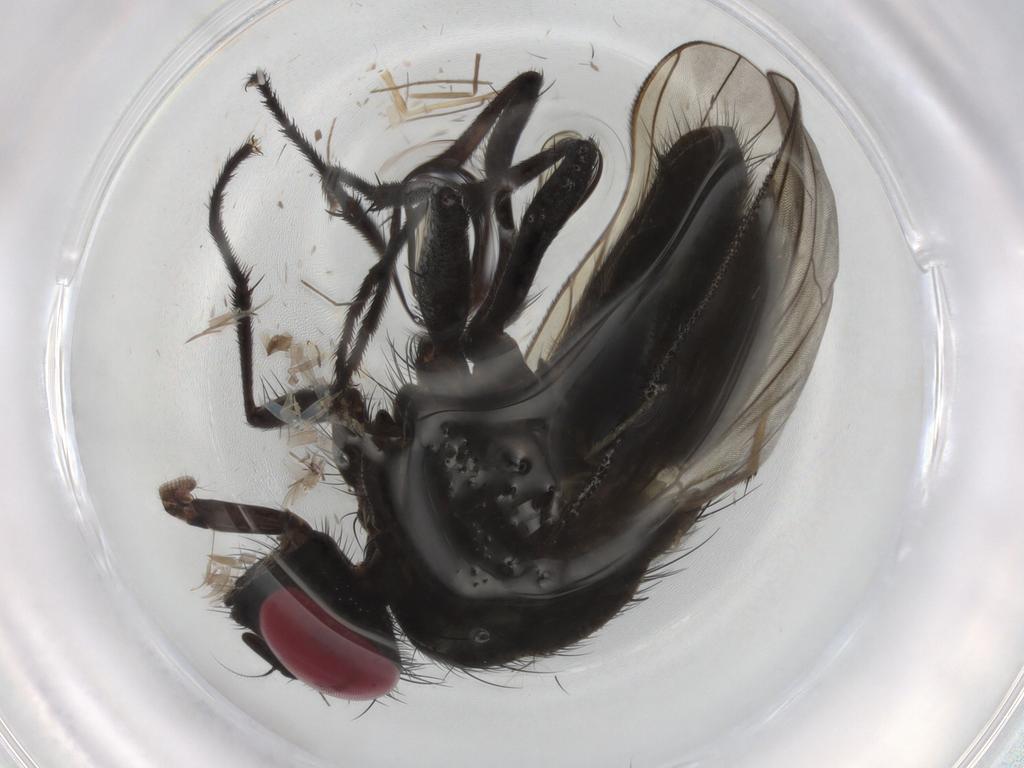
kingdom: Animalia
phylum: Arthropoda
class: Insecta
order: Diptera
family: Muscidae
